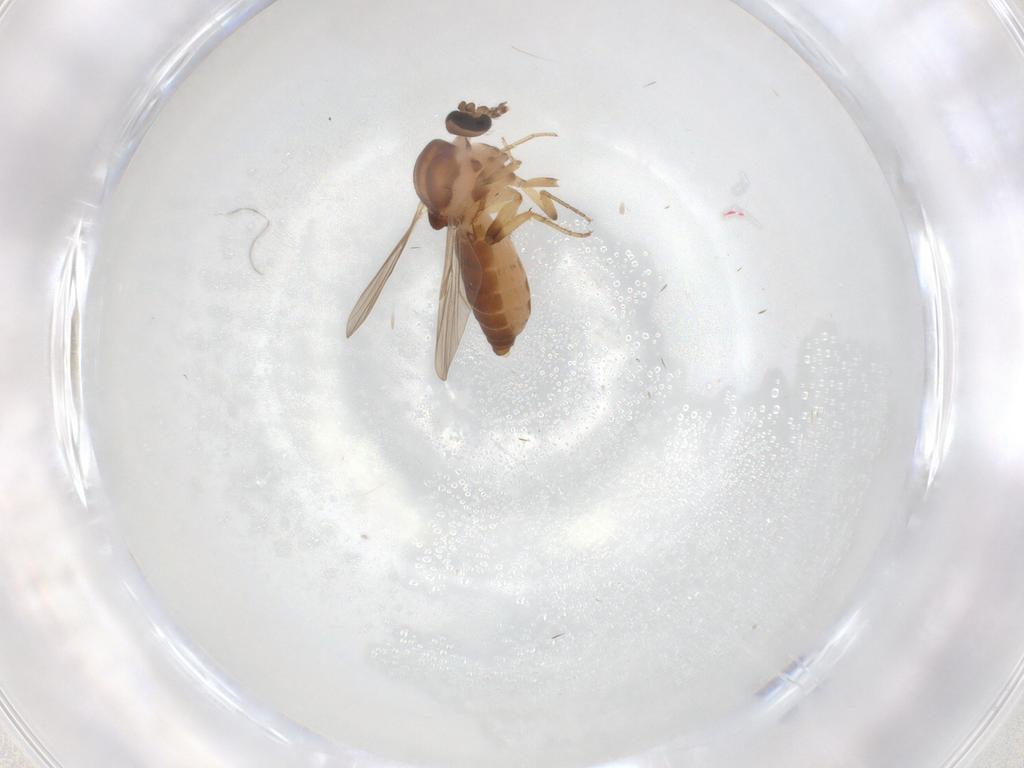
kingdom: Animalia
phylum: Arthropoda
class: Insecta
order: Diptera
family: Ceratopogonidae
